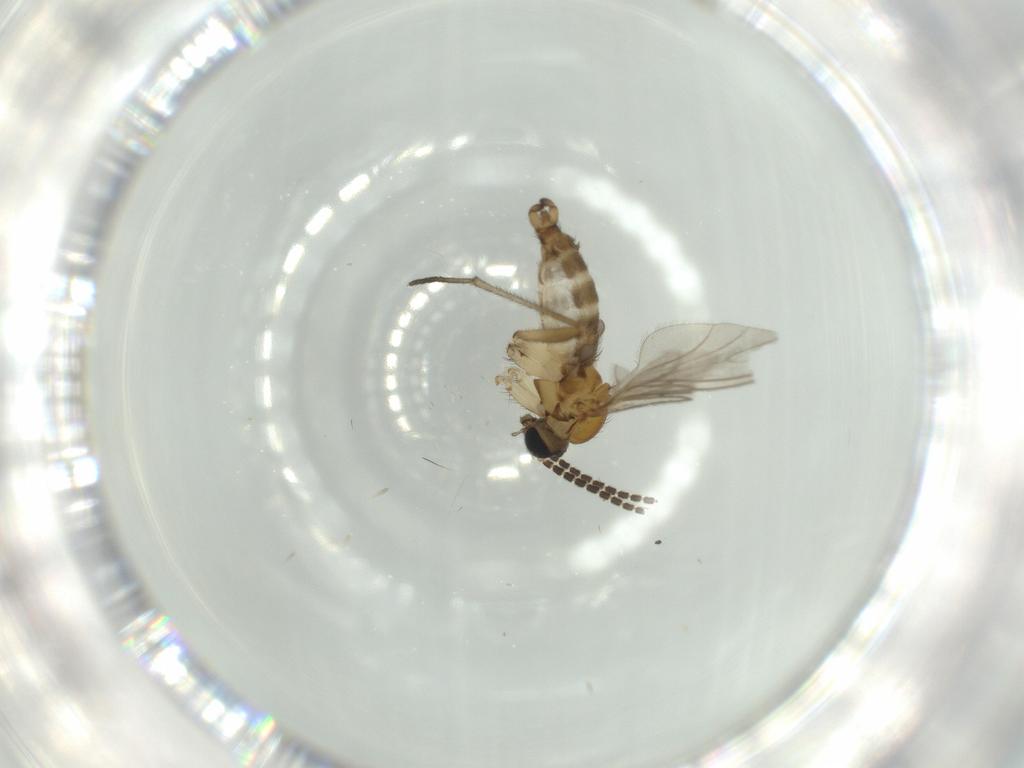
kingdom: Animalia
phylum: Arthropoda
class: Insecta
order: Diptera
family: Sciaridae
